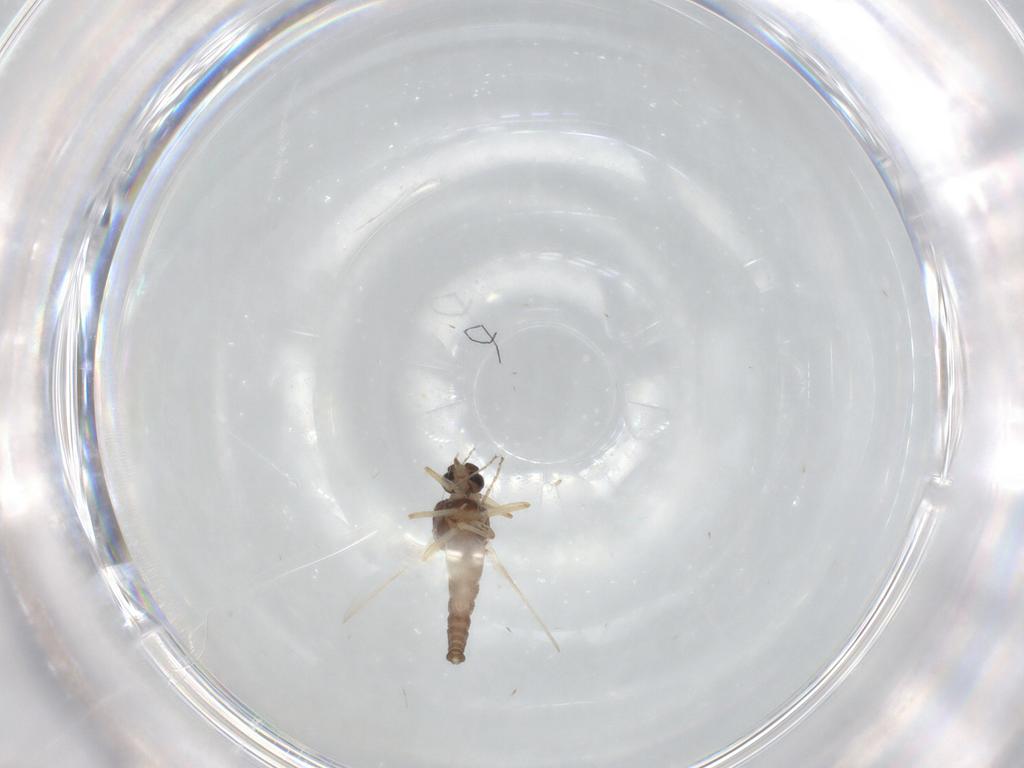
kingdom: Animalia
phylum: Arthropoda
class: Insecta
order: Diptera
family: Ceratopogonidae
